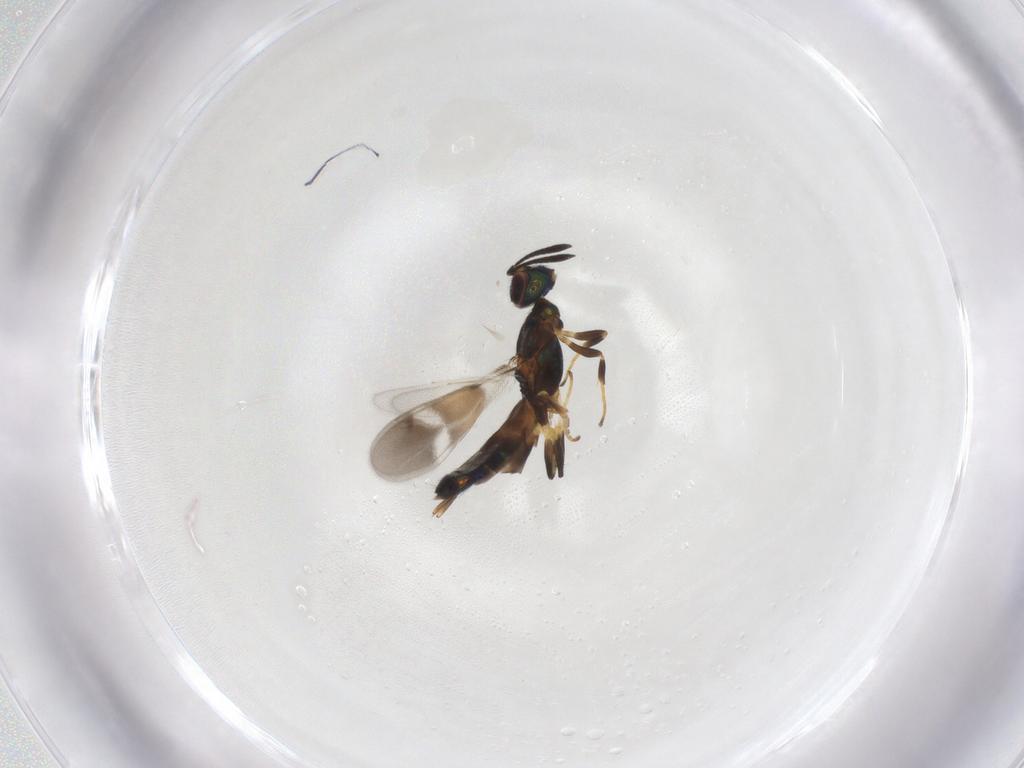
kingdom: Animalia
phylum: Arthropoda
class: Insecta
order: Hymenoptera
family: Eupelmidae
